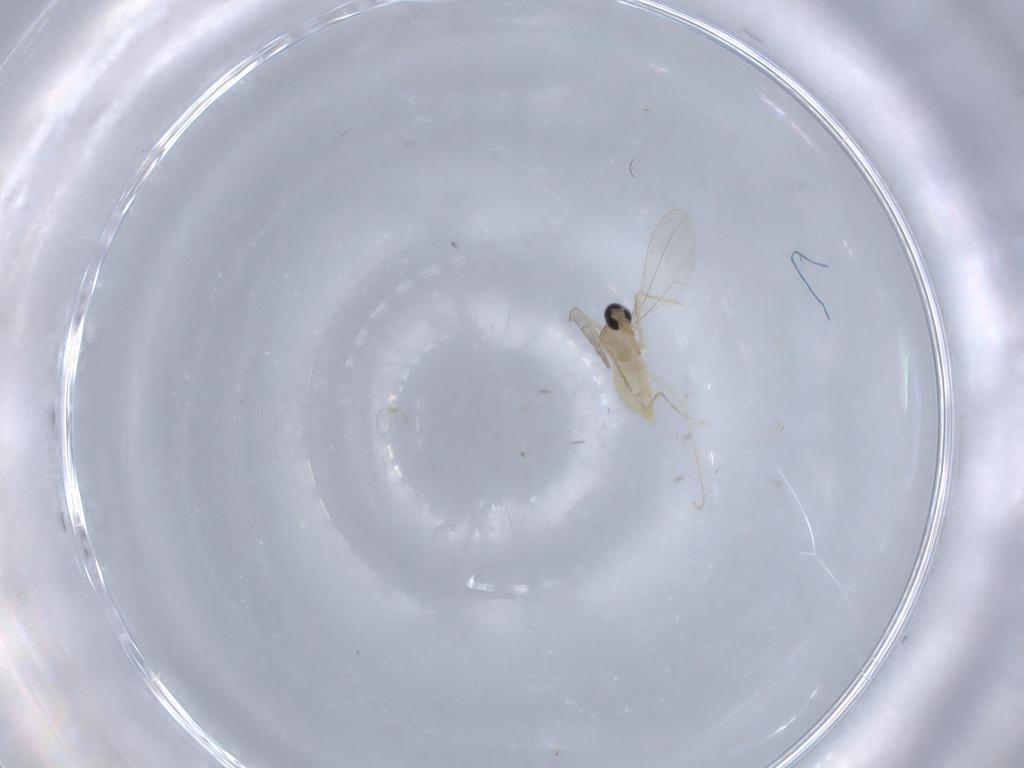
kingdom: Animalia
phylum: Arthropoda
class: Insecta
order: Diptera
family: Cecidomyiidae
